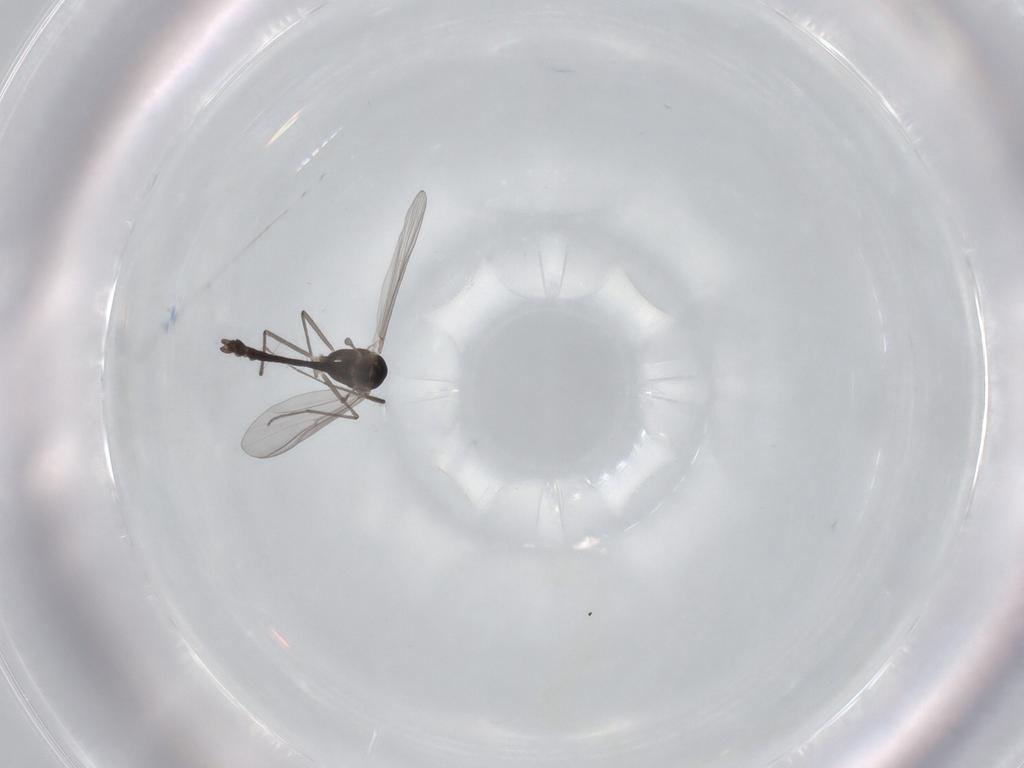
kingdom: Animalia
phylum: Arthropoda
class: Insecta
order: Diptera
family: Chironomidae
